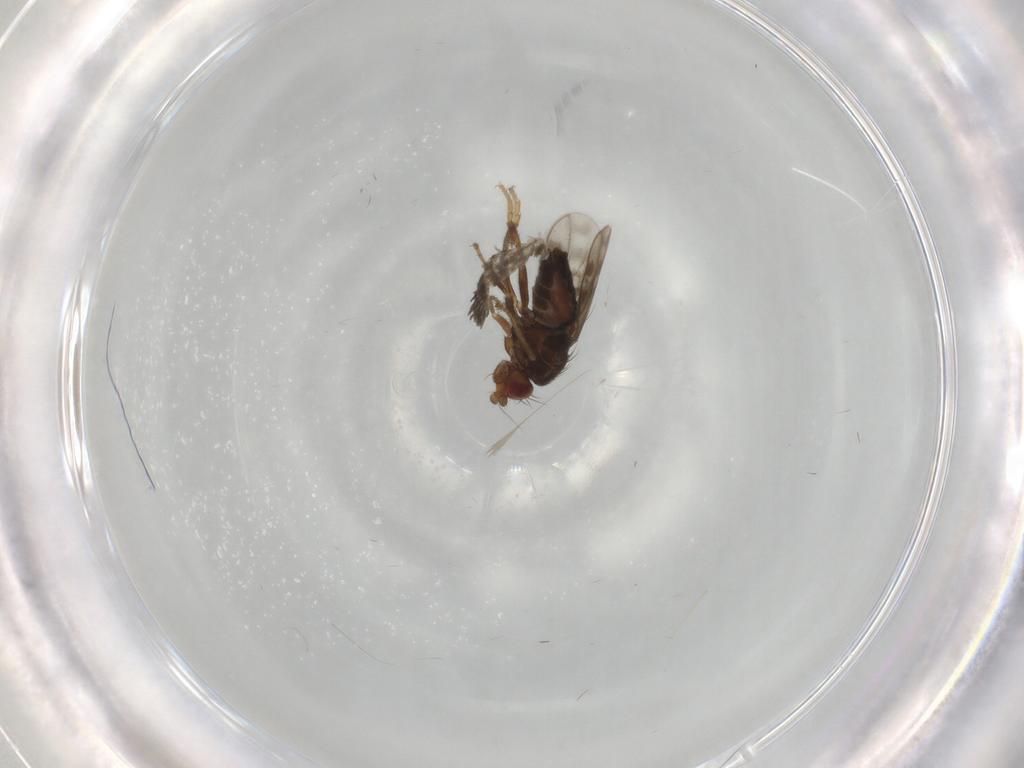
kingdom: Animalia
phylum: Arthropoda
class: Insecta
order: Diptera
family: Sphaeroceridae
